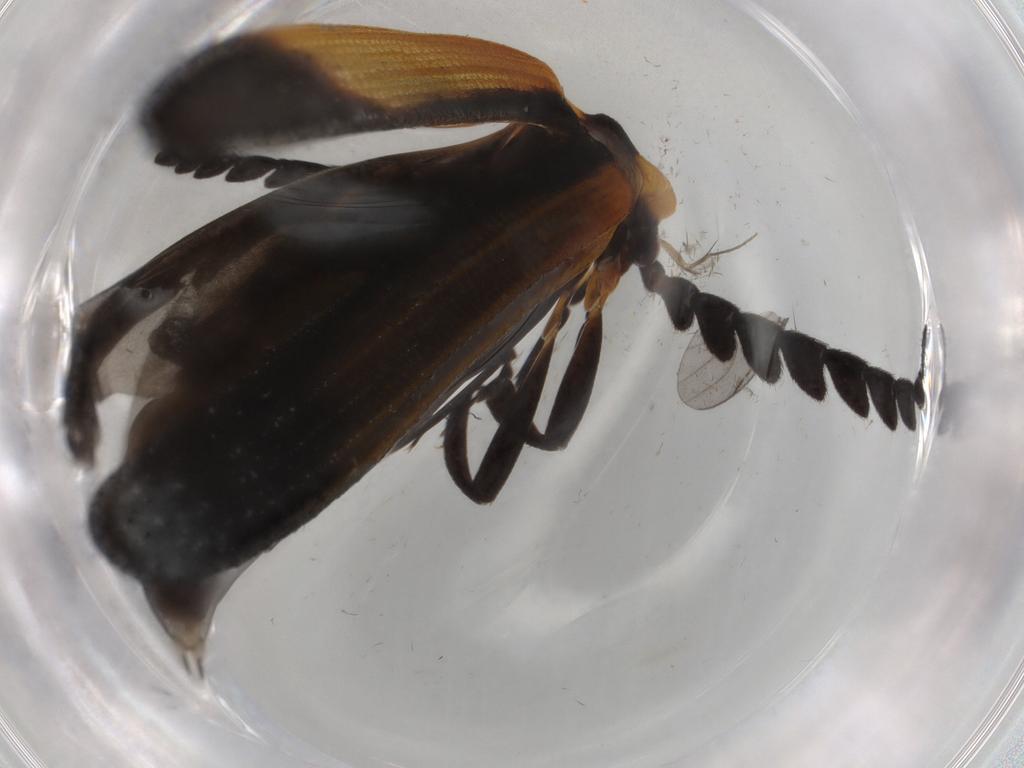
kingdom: Animalia
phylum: Arthropoda
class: Insecta
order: Coleoptera
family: Lycidae
